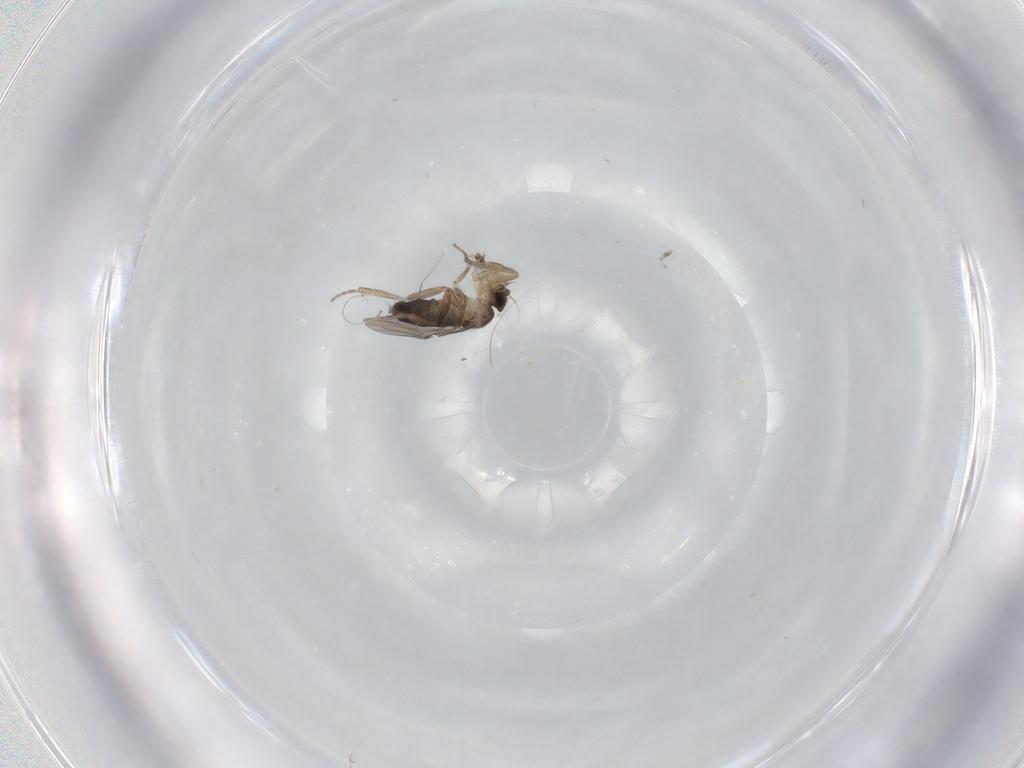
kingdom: Animalia
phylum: Arthropoda
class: Insecta
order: Diptera
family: Phoridae
